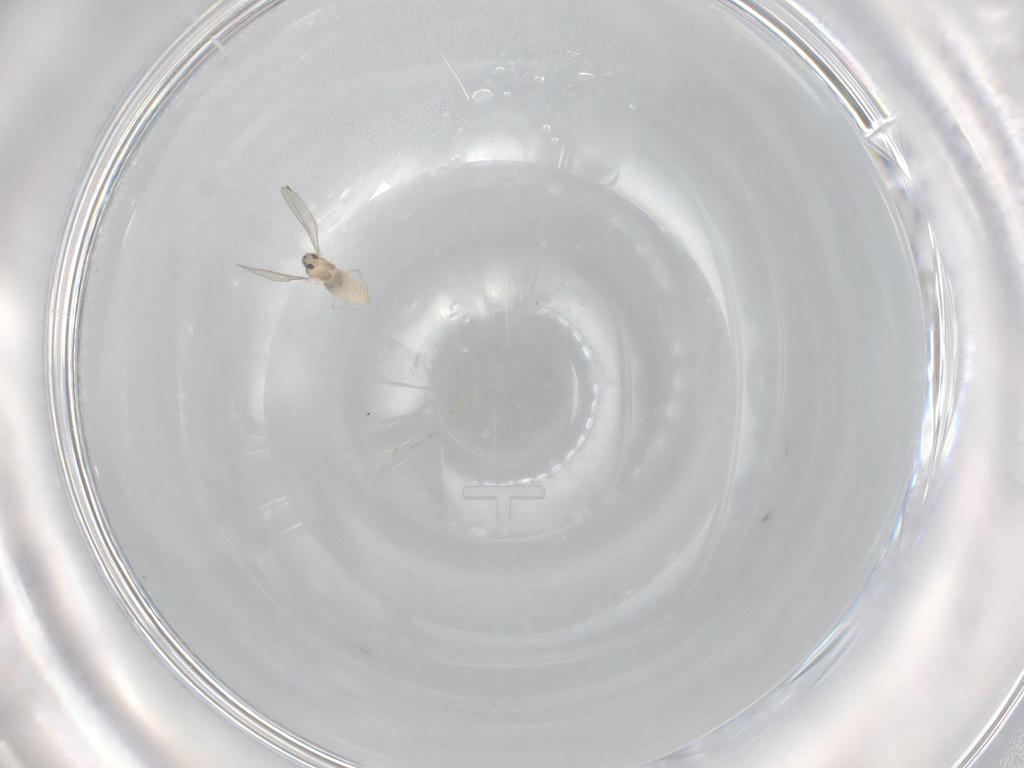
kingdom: Animalia
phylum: Arthropoda
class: Insecta
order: Diptera
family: Cecidomyiidae
